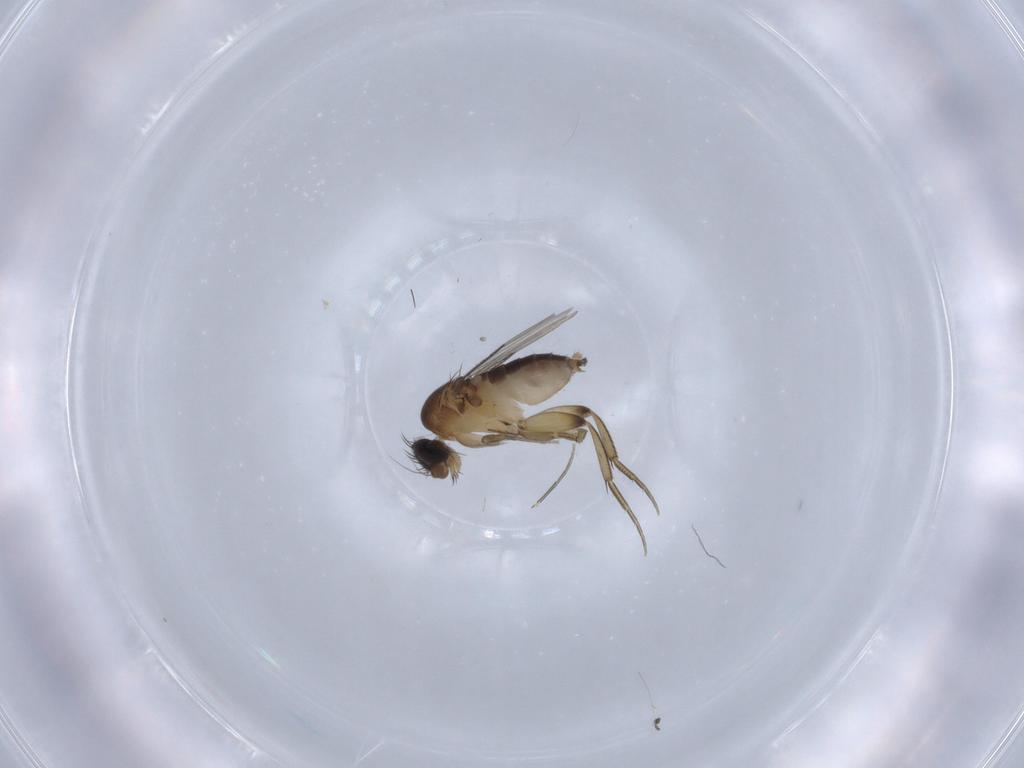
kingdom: Animalia
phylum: Arthropoda
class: Insecta
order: Diptera
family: Phoridae
